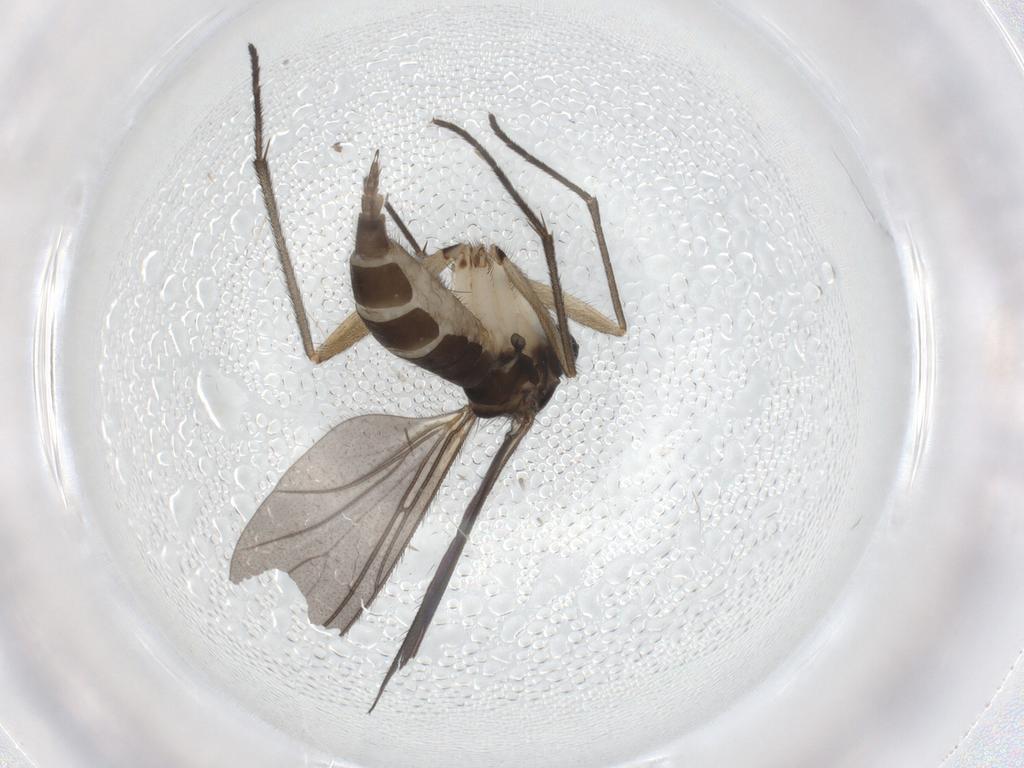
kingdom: Animalia
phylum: Arthropoda
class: Insecta
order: Diptera
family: Sciaridae
